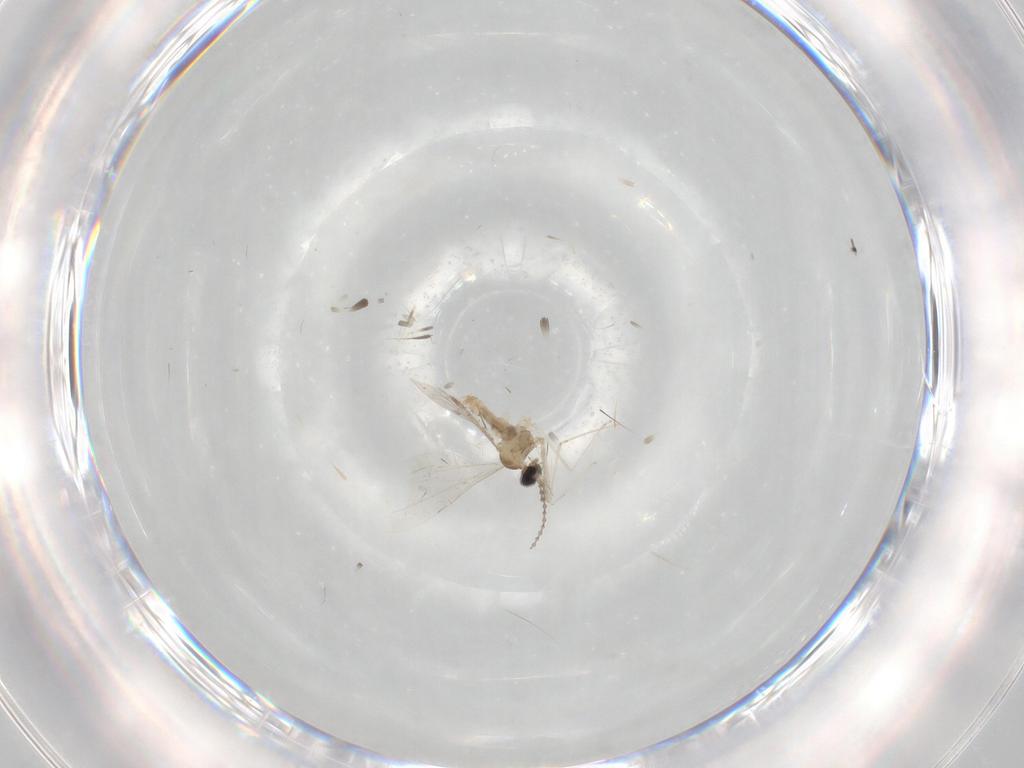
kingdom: Animalia
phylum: Arthropoda
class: Insecta
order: Diptera
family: Cecidomyiidae
